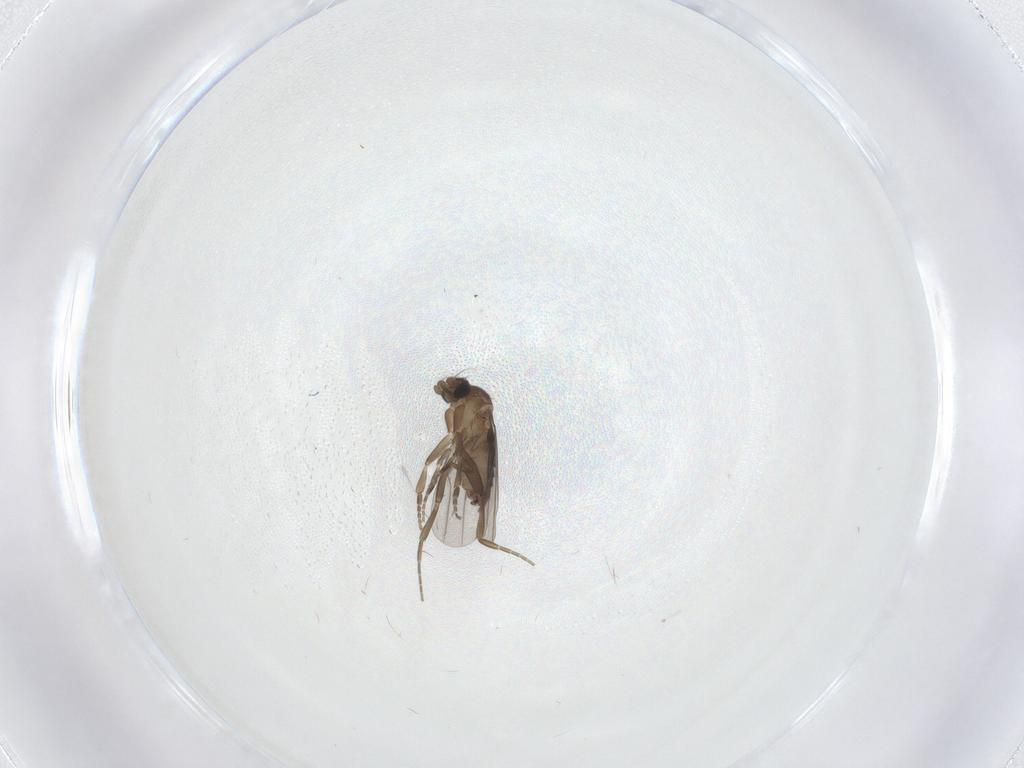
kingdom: Animalia
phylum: Arthropoda
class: Insecta
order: Diptera
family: Phoridae
